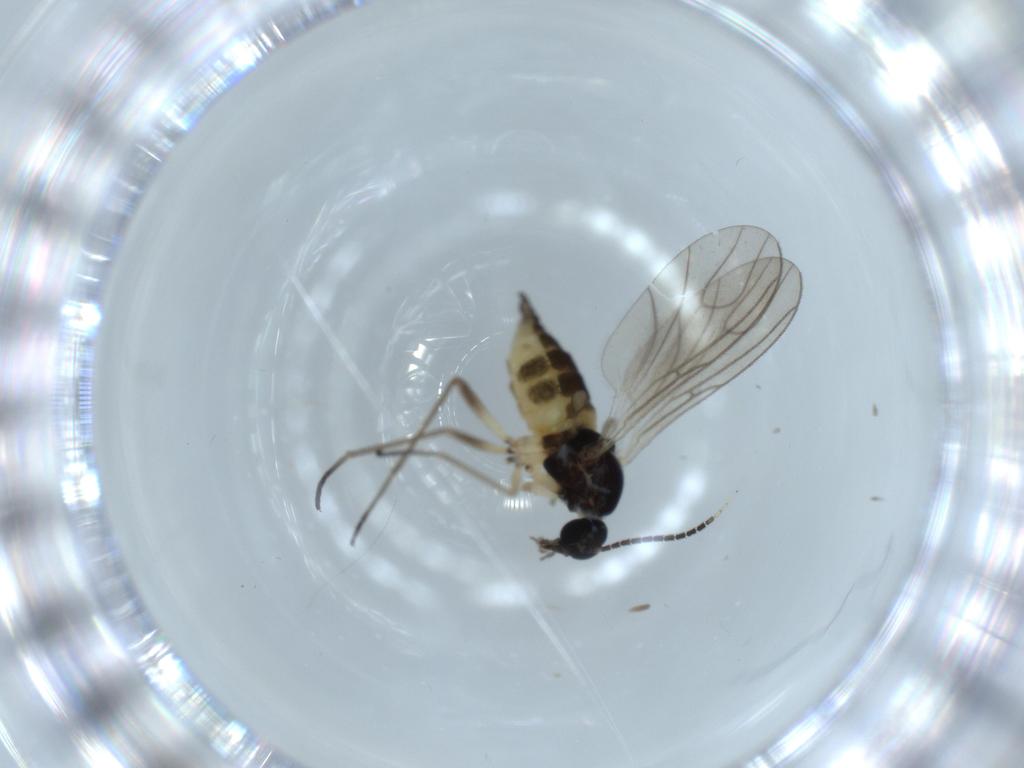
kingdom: Animalia
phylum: Arthropoda
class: Insecta
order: Diptera
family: Sciaridae
